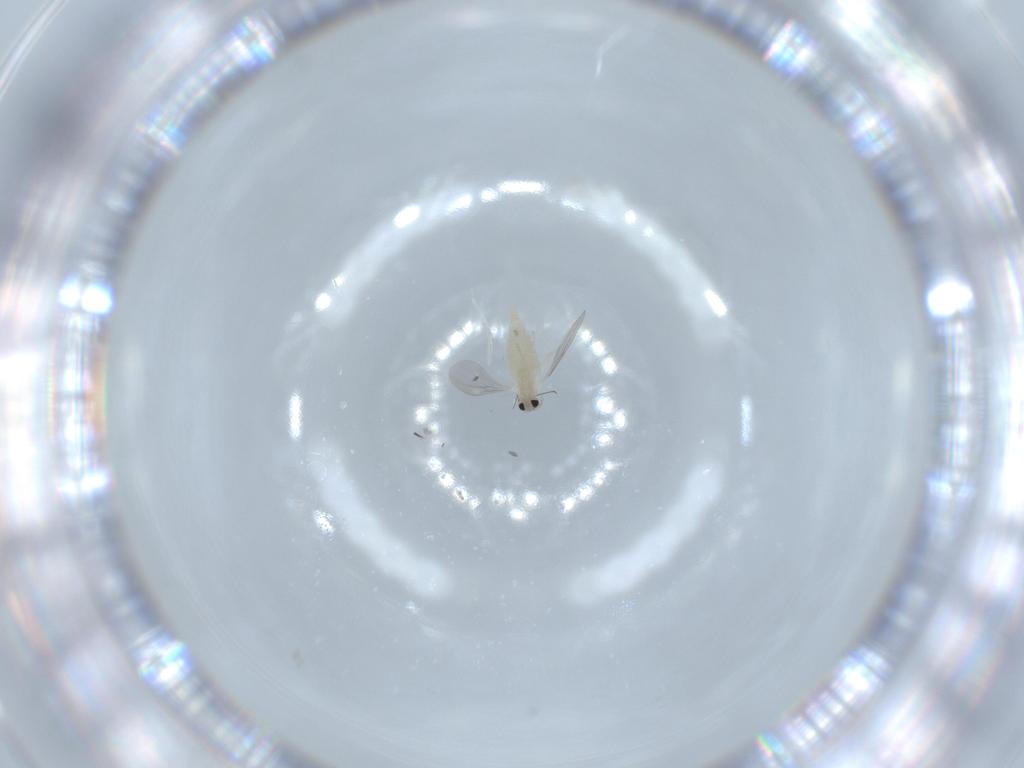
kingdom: Animalia
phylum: Arthropoda
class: Insecta
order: Diptera
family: Cecidomyiidae
